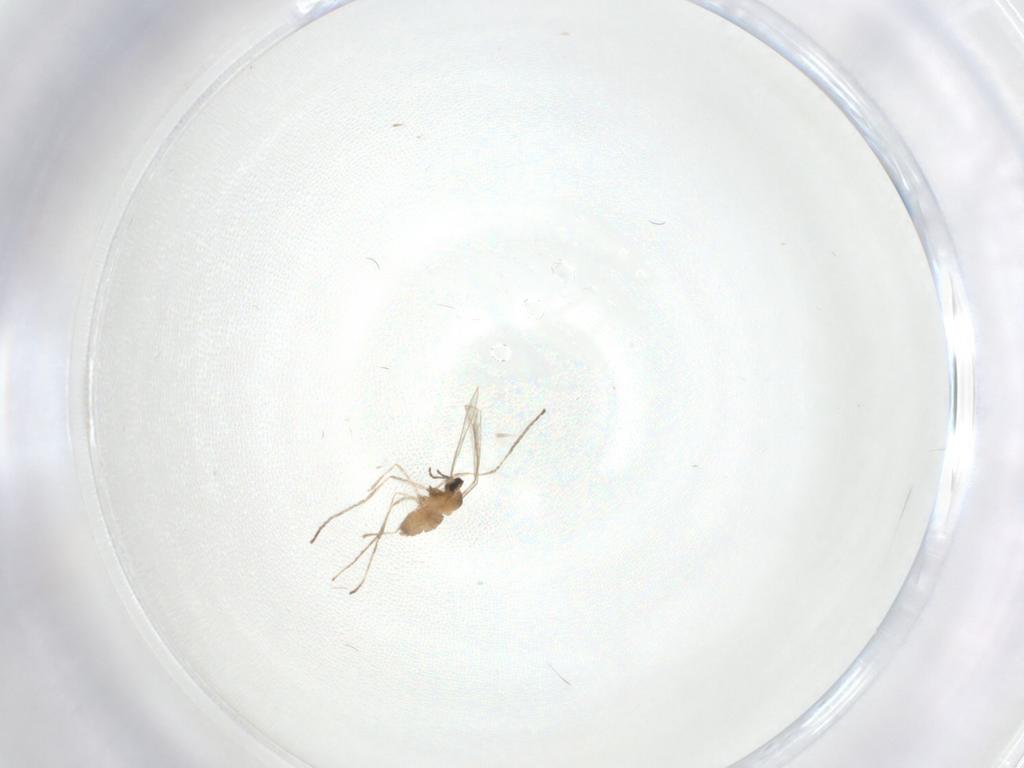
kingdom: Animalia
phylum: Arthropoda
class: Insecta
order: Diptera
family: Cecidomyiidae
